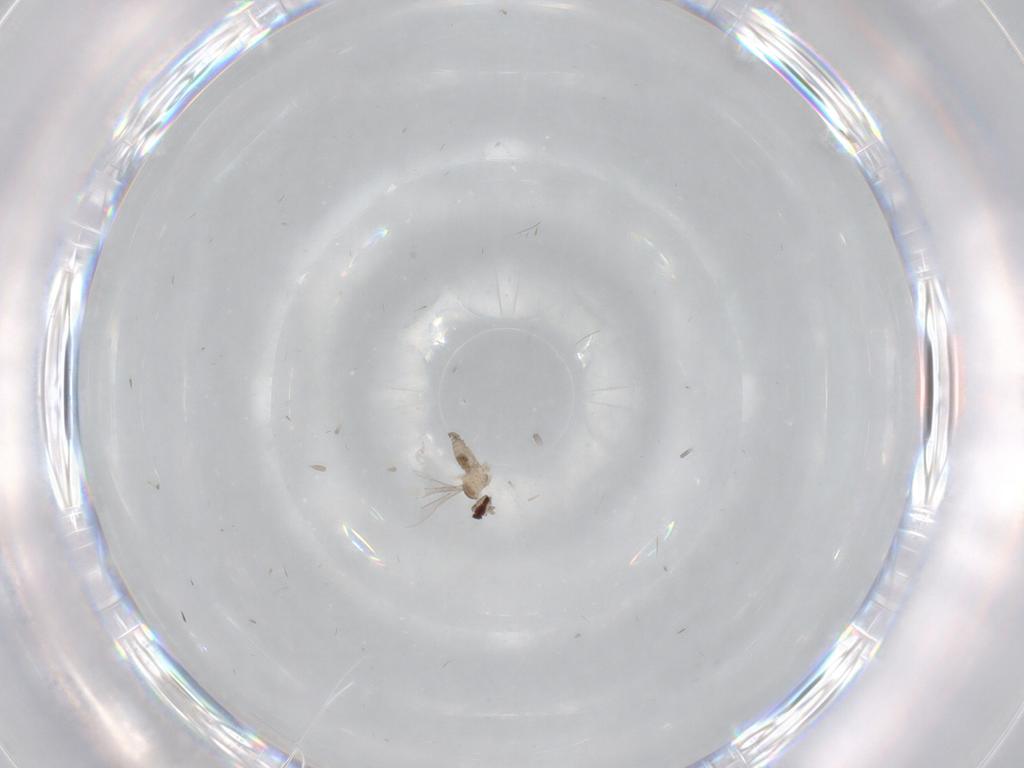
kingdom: Animalia
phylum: Arthropoda
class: Insecta
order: Diptera
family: Cecidomyiidae
